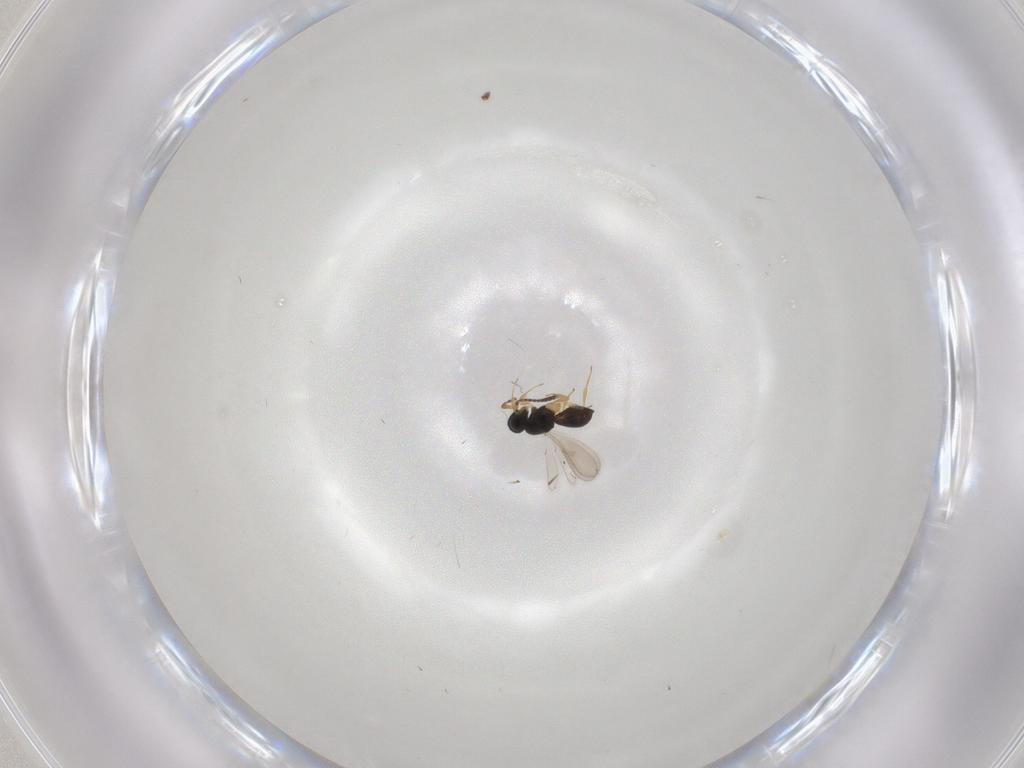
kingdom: Animalia
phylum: Arthropoda
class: Insecta
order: Hymenoptera
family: Scelionidae
